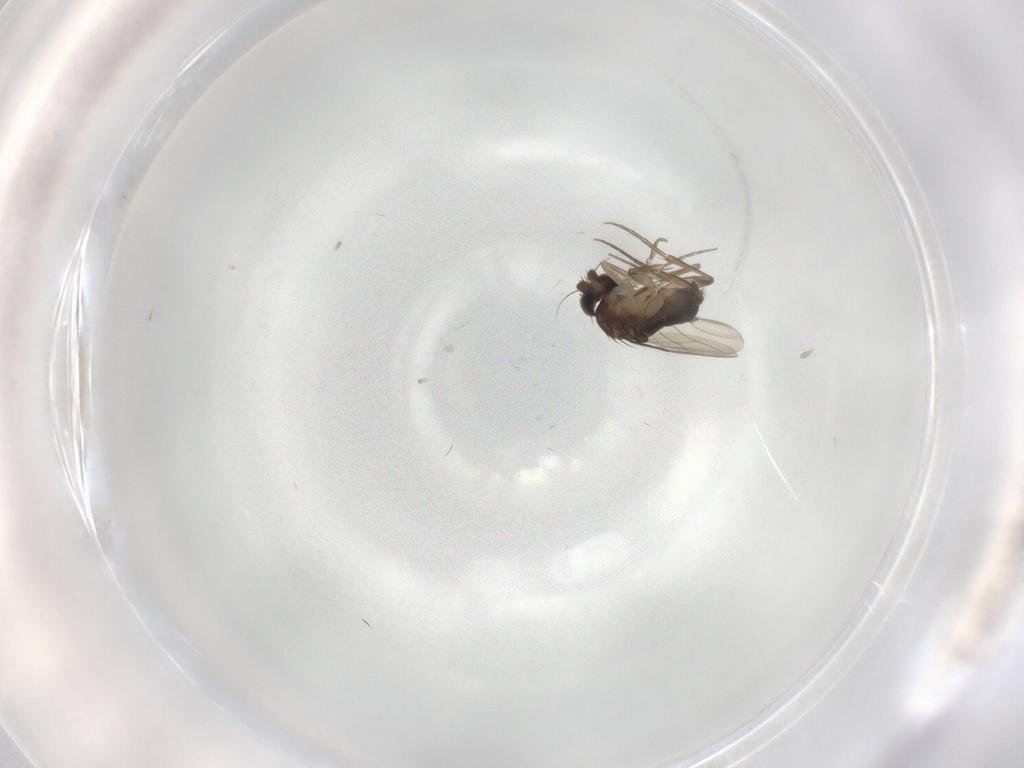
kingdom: Animalia
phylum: Arthropoda
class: Insecta
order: Diptera
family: Phoridae
